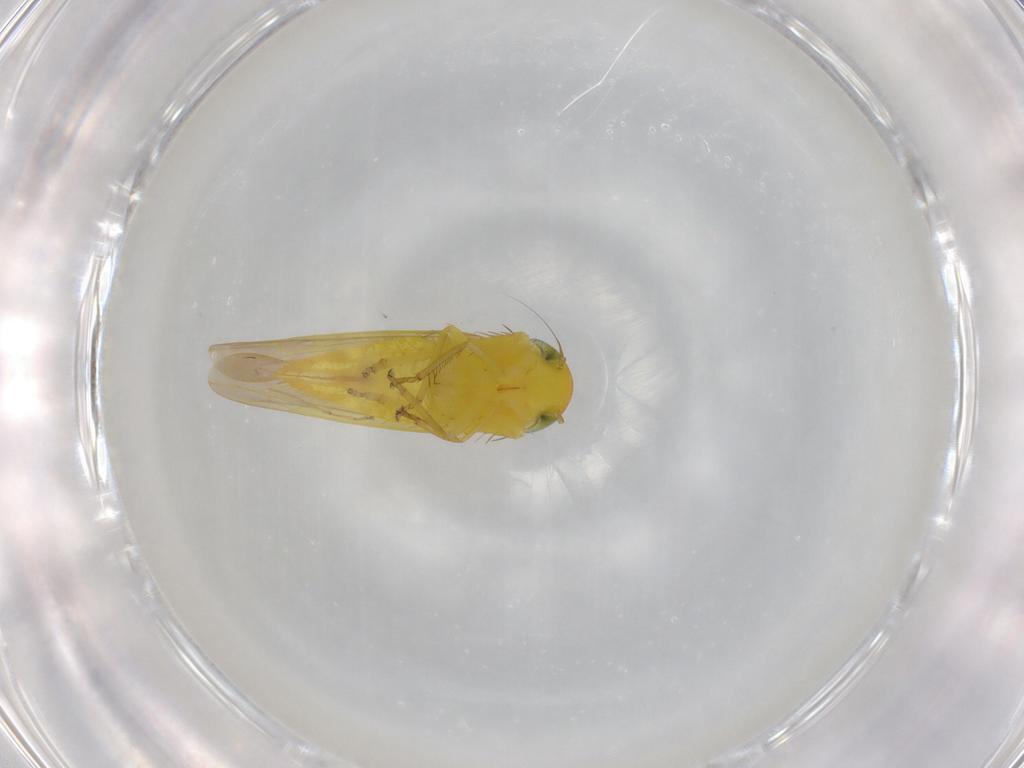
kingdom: Animalia
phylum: Arthropoda
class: Insecta
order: Hemiptera
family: Cicadellidae
